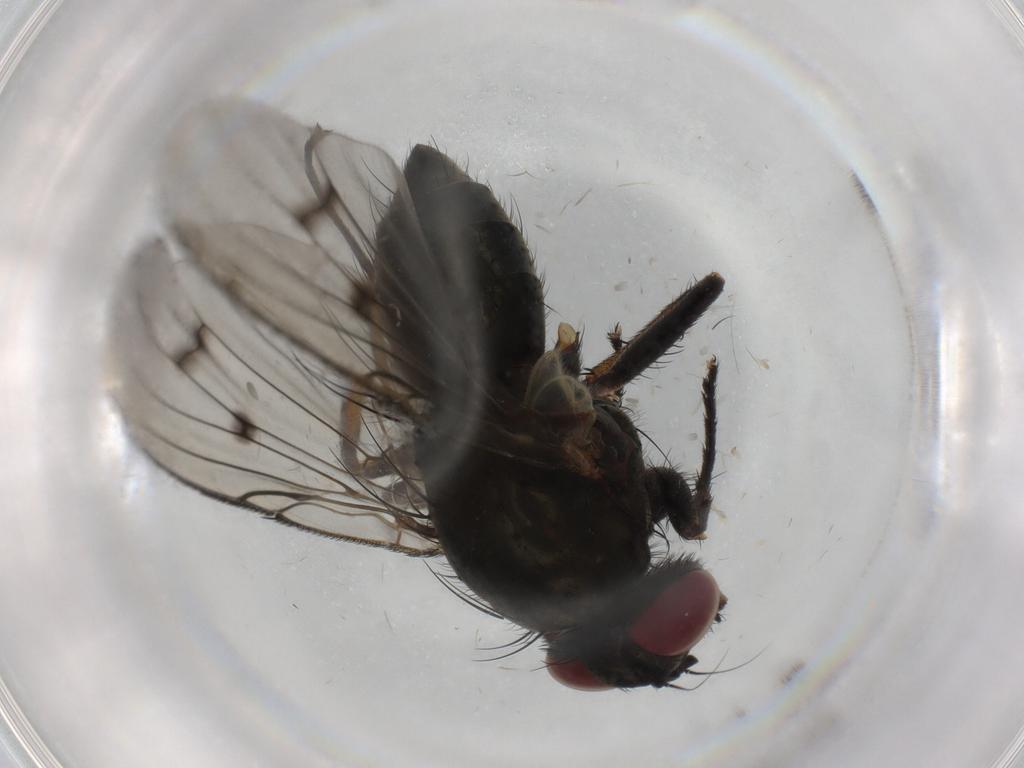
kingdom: Animalia
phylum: Arthropoda
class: Insecta
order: Diptera
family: Muscidae
